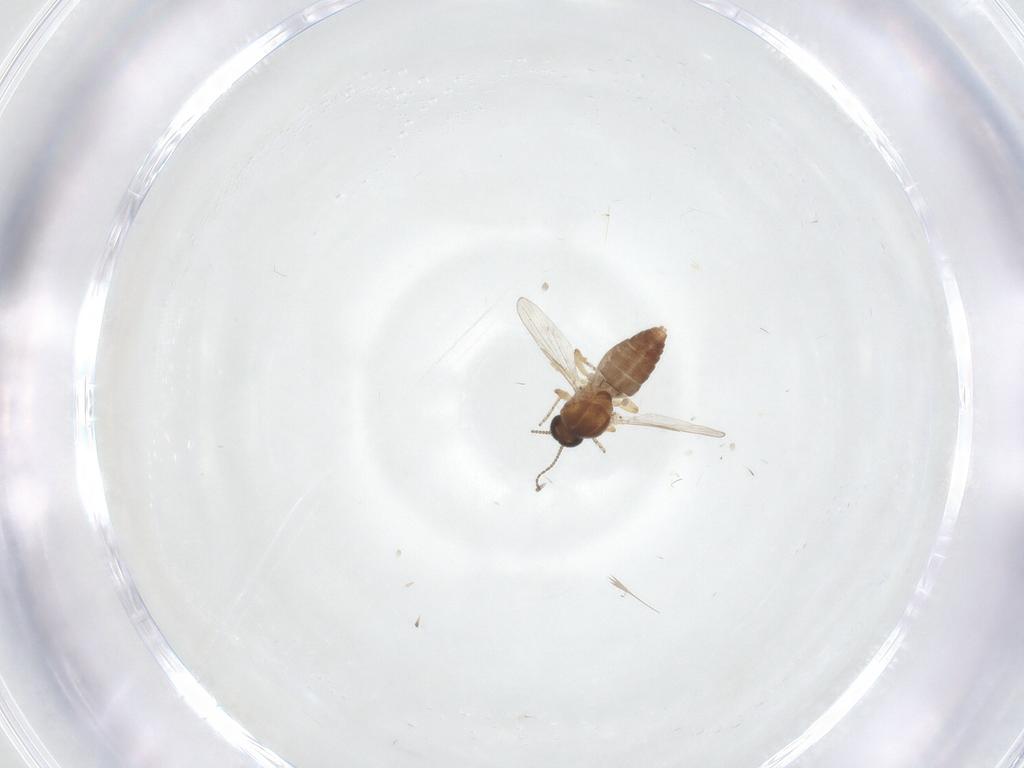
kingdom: Animalia
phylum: Arthropoda
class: Insecta
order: Diptera
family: Ceratopogonidae
